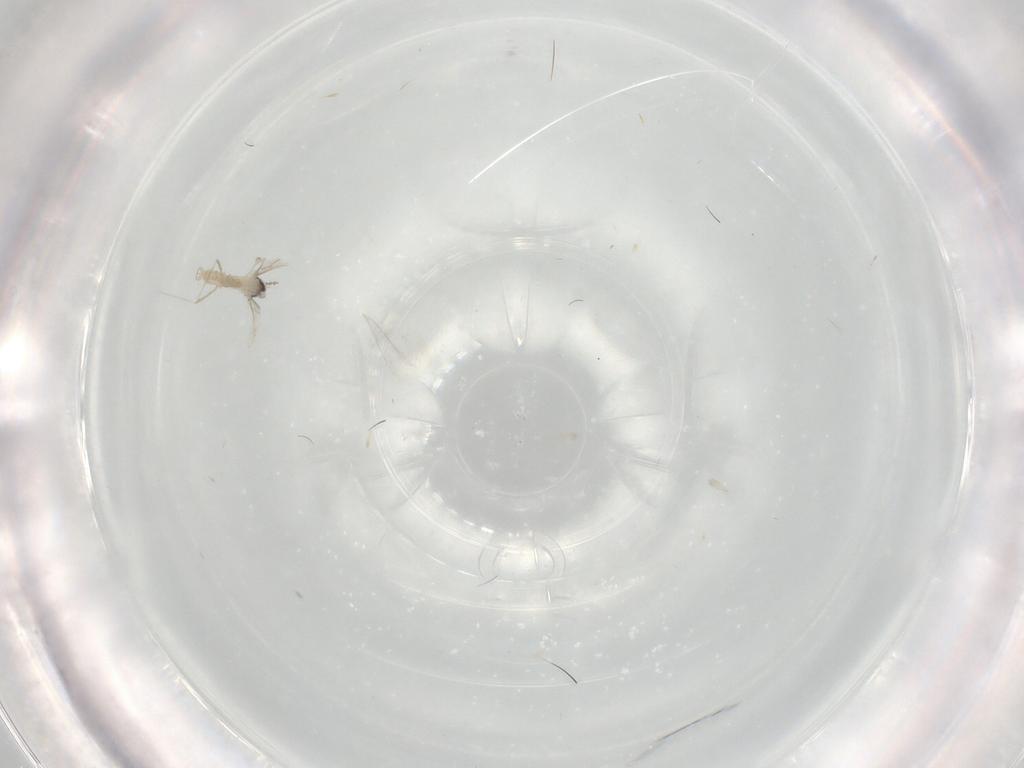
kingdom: Animalia
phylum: Arthropoda
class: Insecta
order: Diptera
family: Cecidomyiidae
